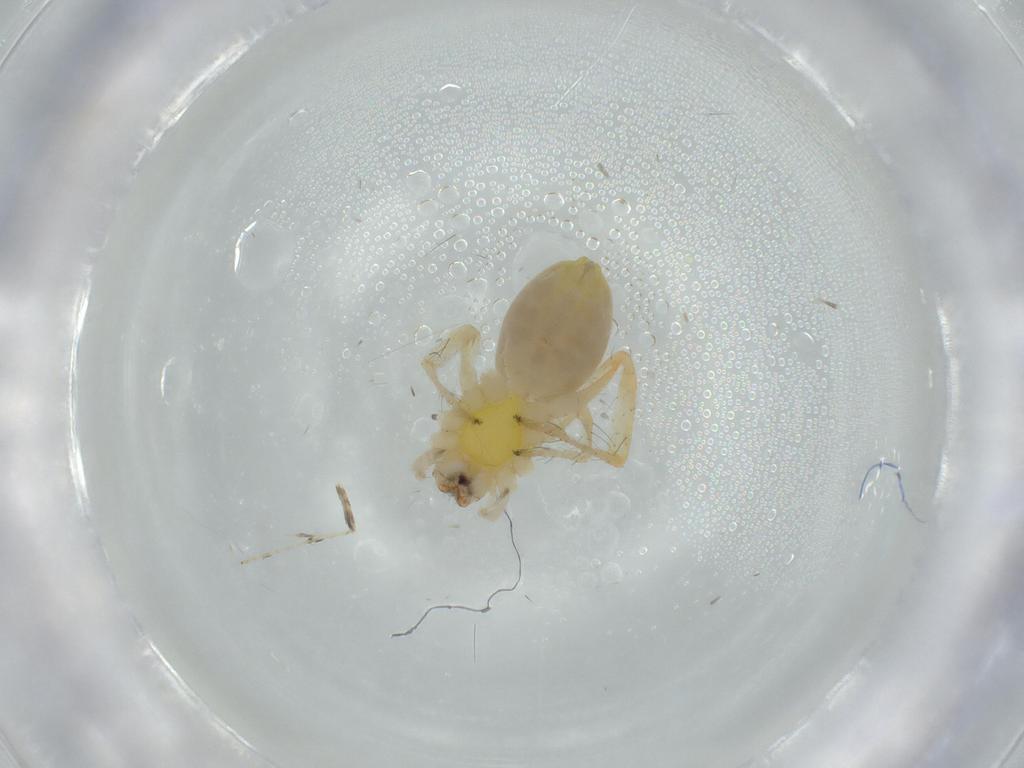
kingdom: Animalia
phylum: Arthropoda
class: Arachnida
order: Araneae
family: Anyphaenidae
